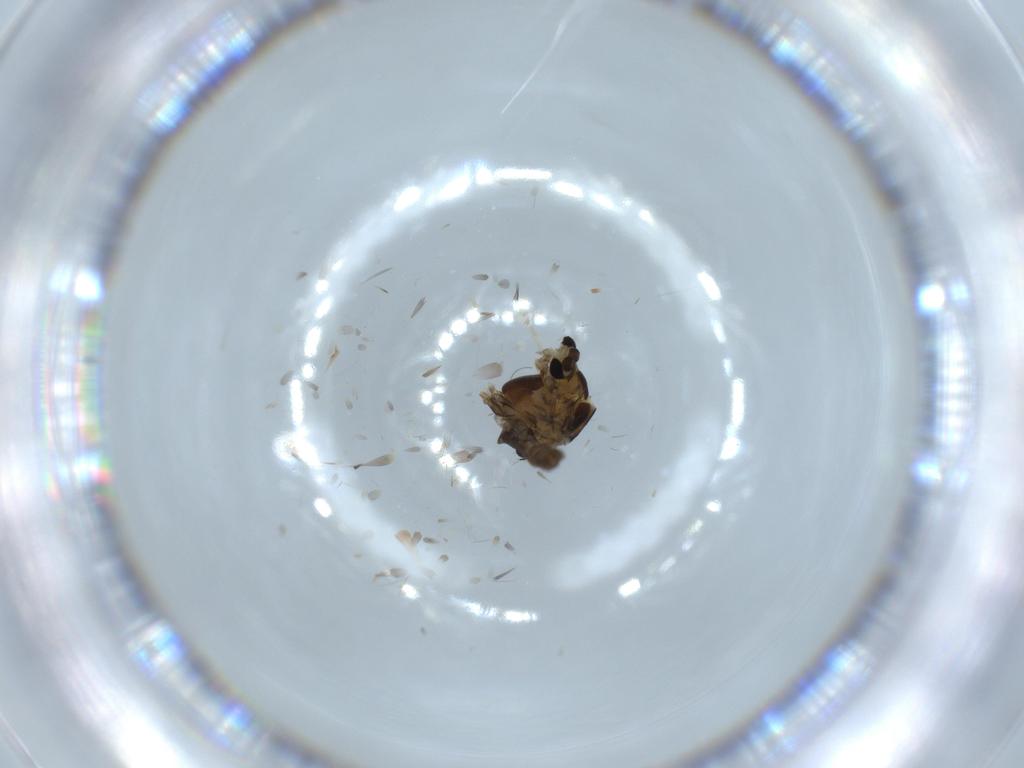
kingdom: Animalia
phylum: Arthropoda
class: Insecta
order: Diptera
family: Chironomidae
